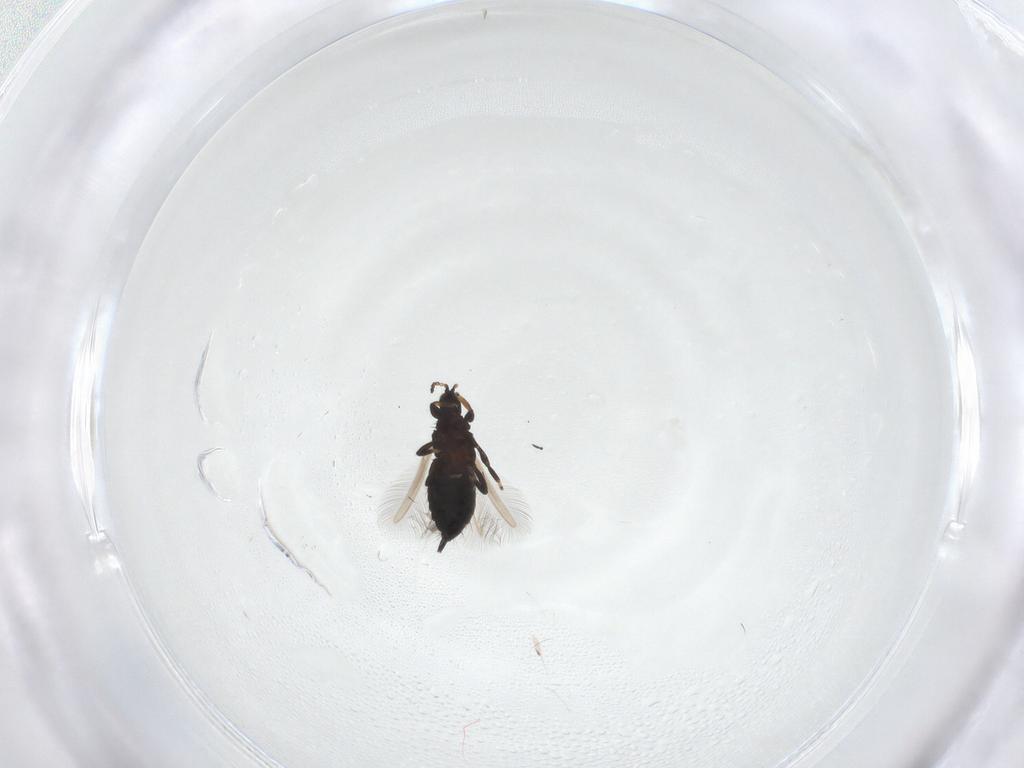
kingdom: Animalia
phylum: Arthropoda
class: Insecta
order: Thysanoptera
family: Phlaeothripidae
